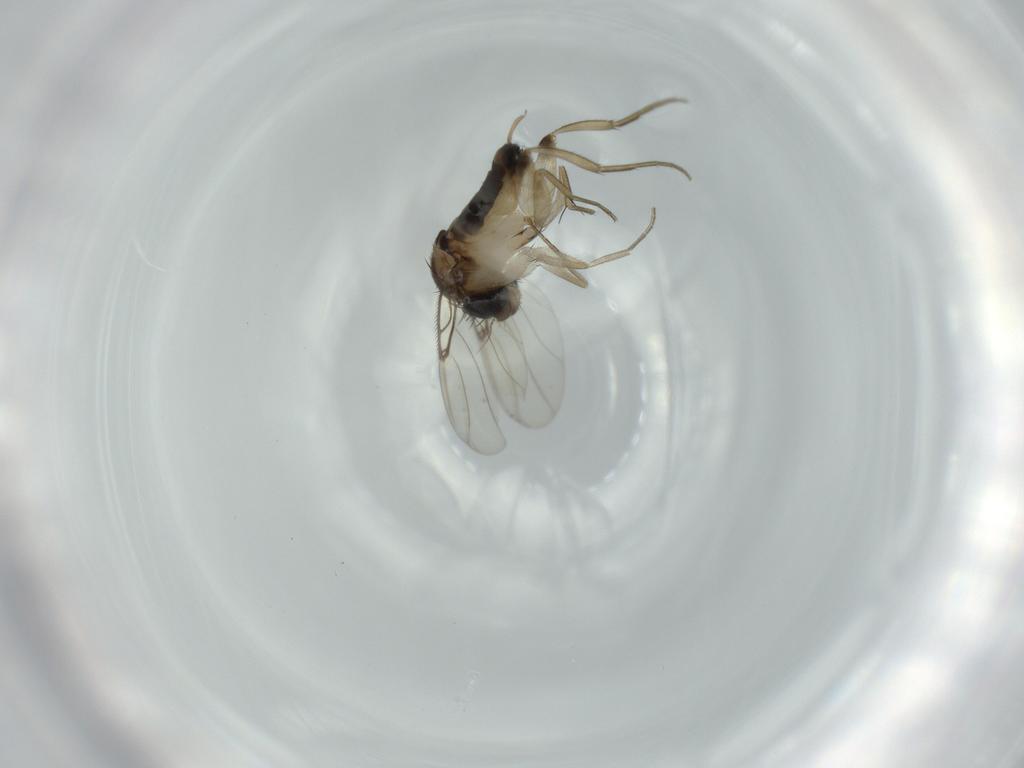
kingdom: Animalia
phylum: Arthropoda
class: Insecta
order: Diptera
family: Phoridae
